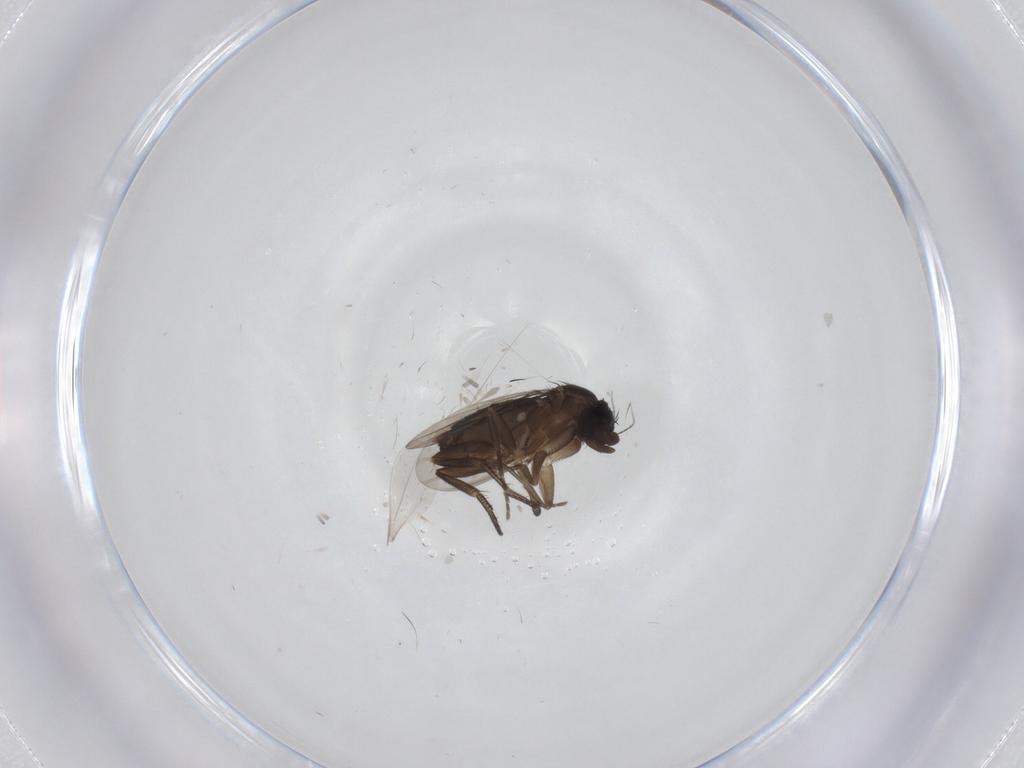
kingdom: Animalia
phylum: Arthropoda
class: Insecta
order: Diptera
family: Phoridae
